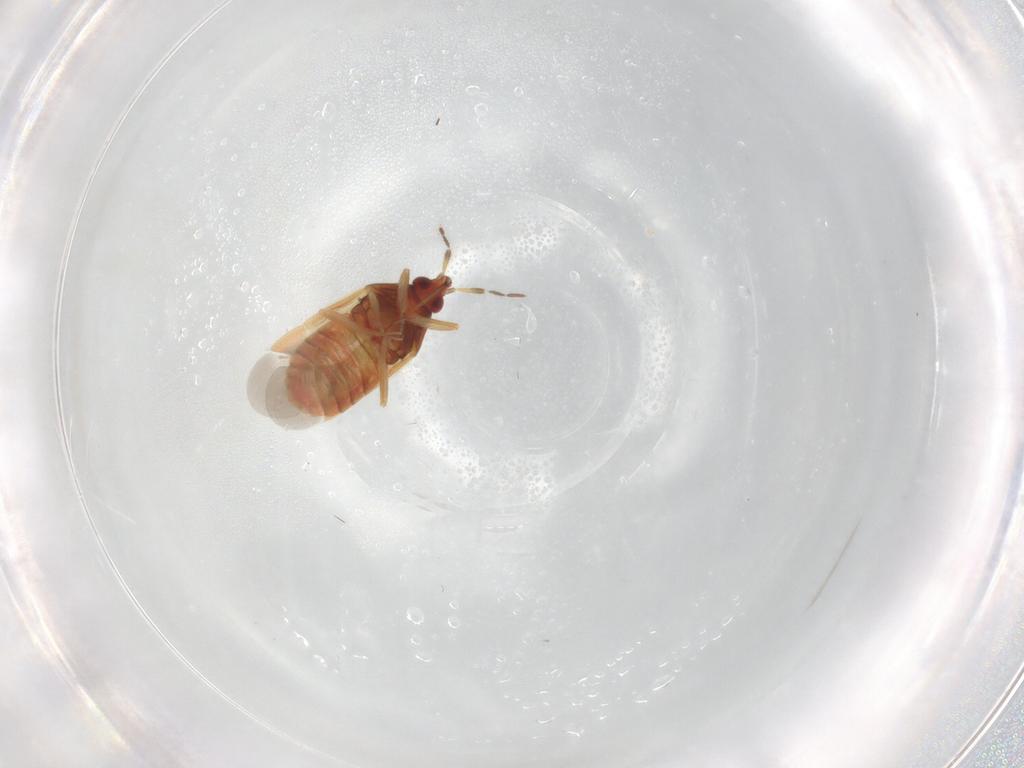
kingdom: Animalia
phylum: Arthropoda
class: Insecta
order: Hemiptera
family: Anthocoridae
